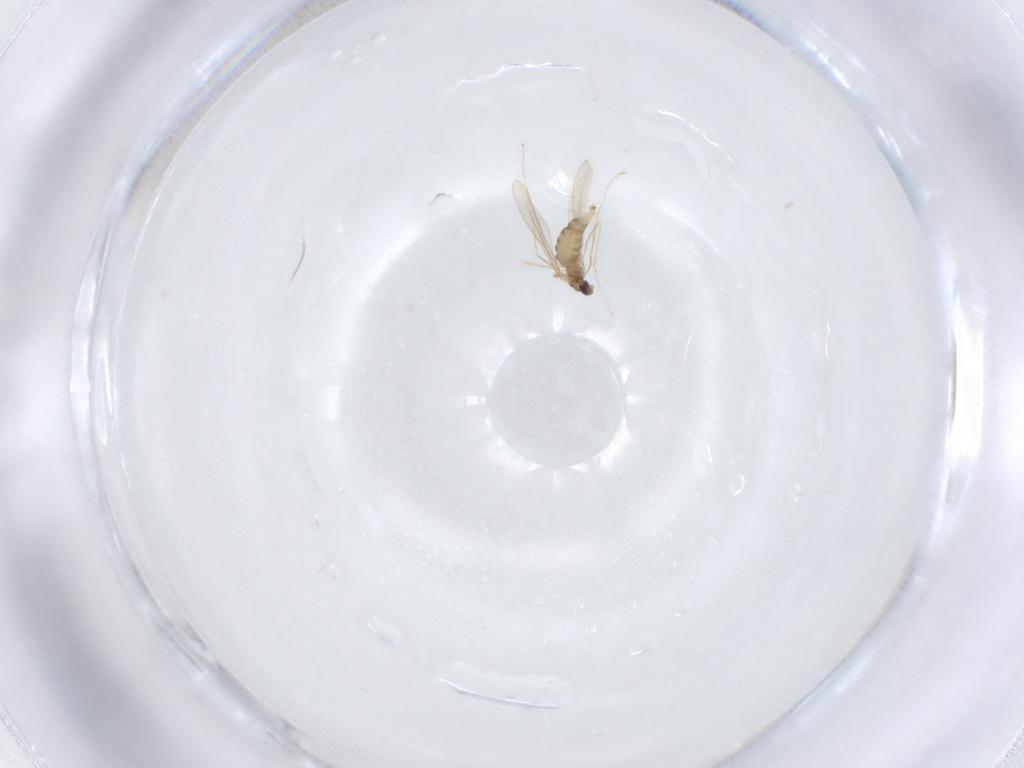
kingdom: Animalia
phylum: Arthropoda
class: Insecta
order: Diptera
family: Cecidomyiidae
